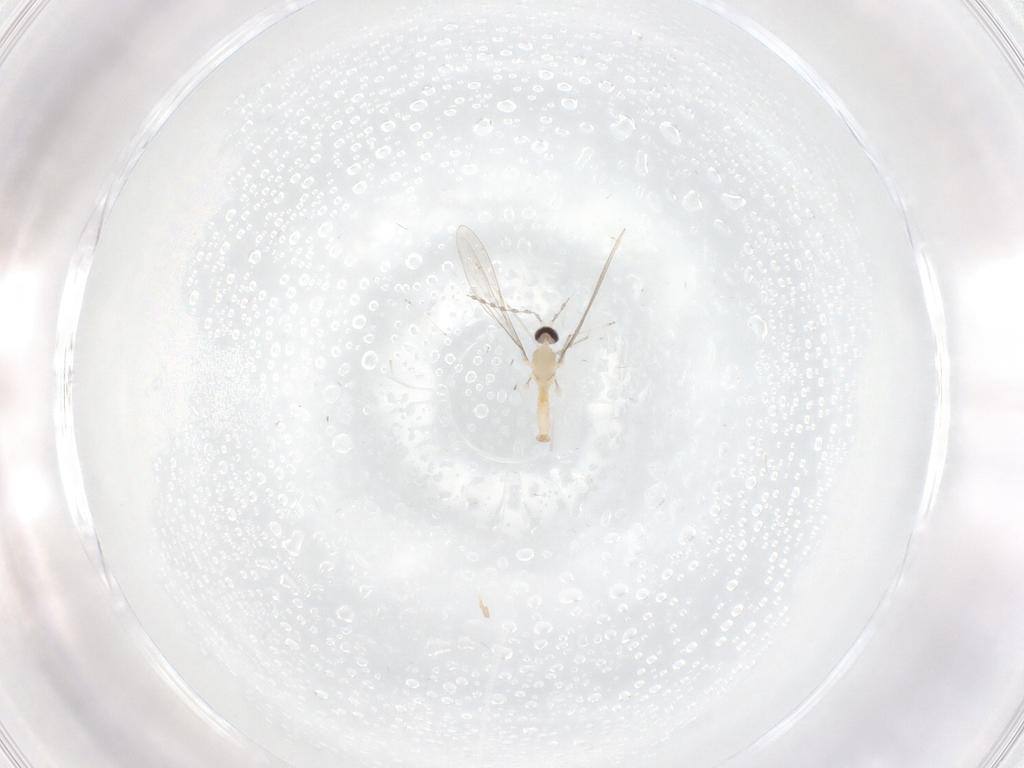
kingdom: Animalia
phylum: Arthropoda
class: Insecta
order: Diptera
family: Cecidomyiidae
